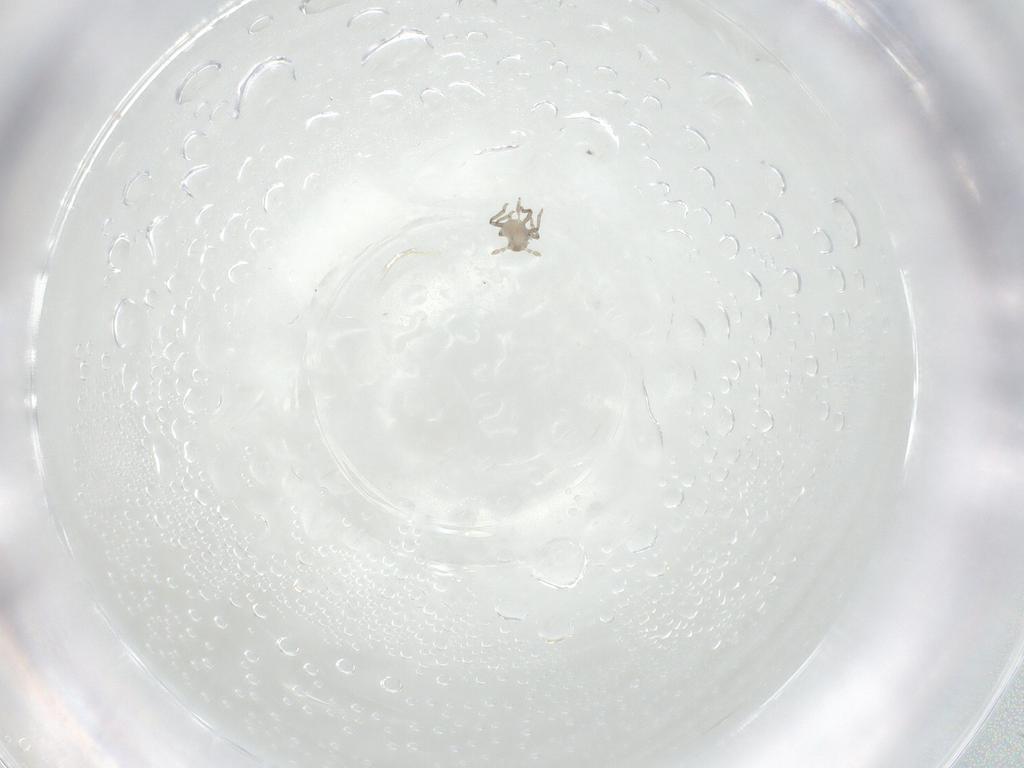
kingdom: Animalia
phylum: Arthropoda
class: Insecta
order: Hemiptera
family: Aphididae
